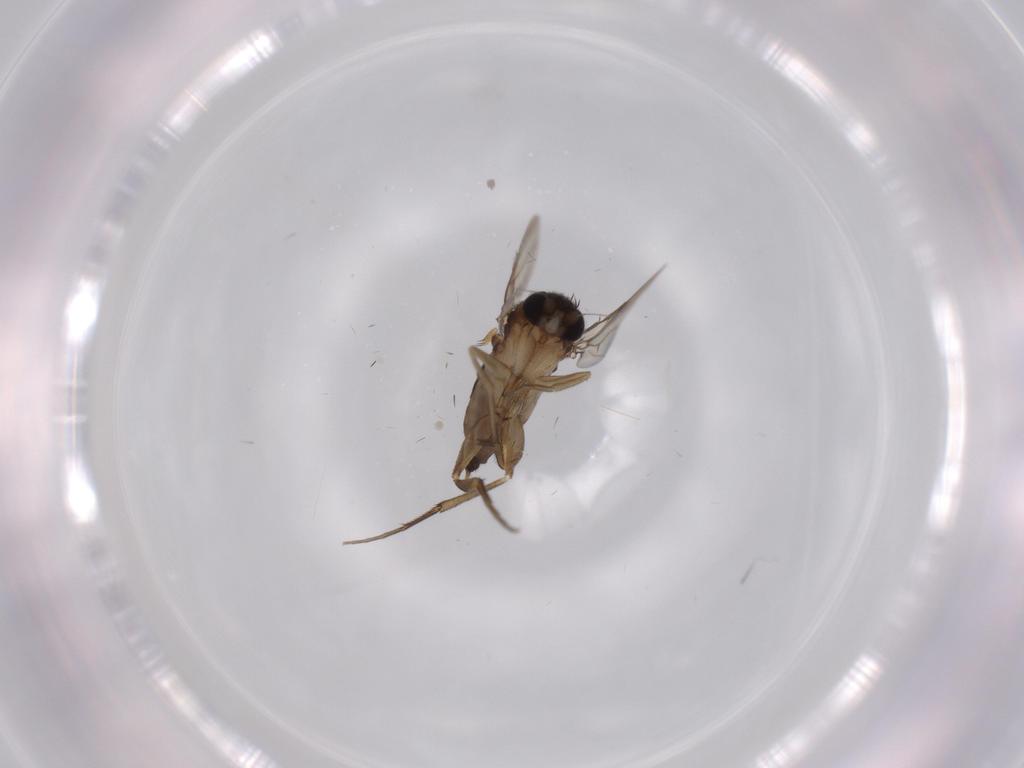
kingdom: Animalia
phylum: Arthropoda
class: Insecta
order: Diptera
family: Phoridae
